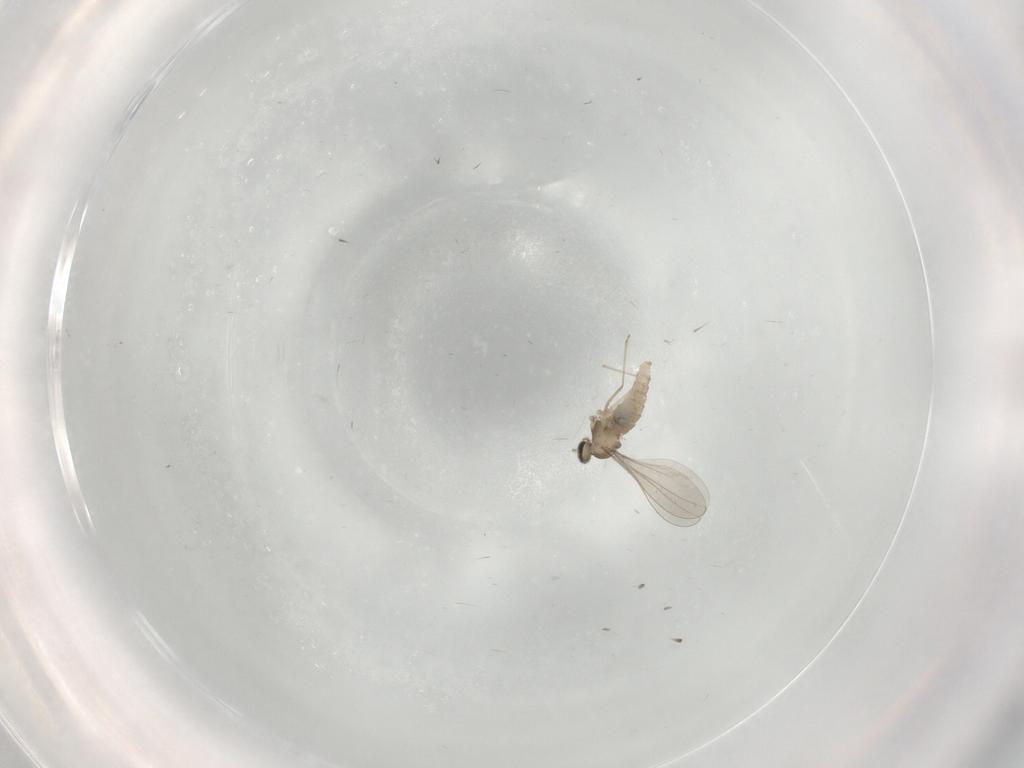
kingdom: Animalia
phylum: Arthropoda
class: Insecta
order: Diptera
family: Cecidomyiidae
